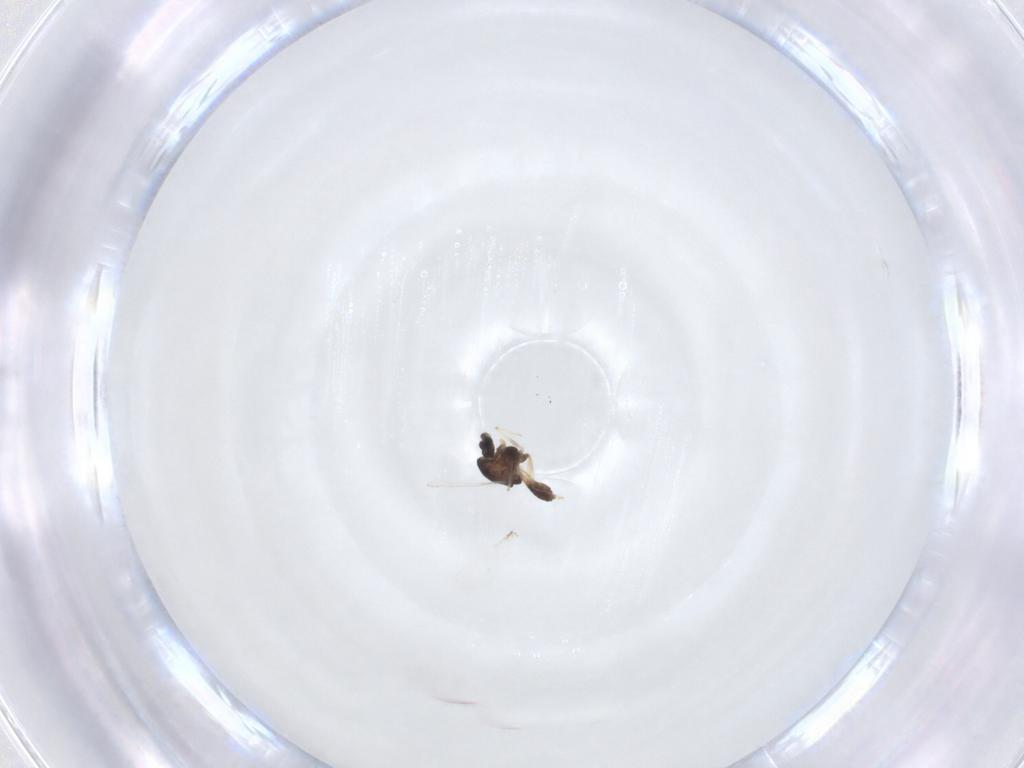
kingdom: Animalia
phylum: Arthropoda
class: Insecta
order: Diptera
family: Chironomidae
